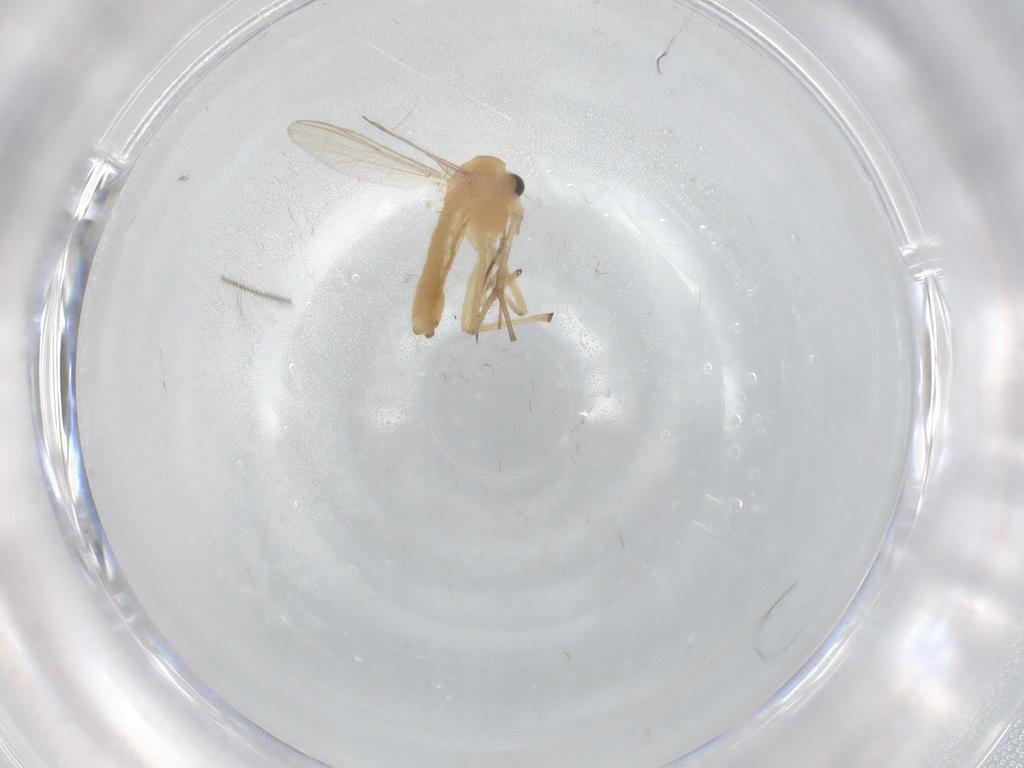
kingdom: Animalia
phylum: Arthropoda
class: Insecta
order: Diptera
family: Chironomidae
